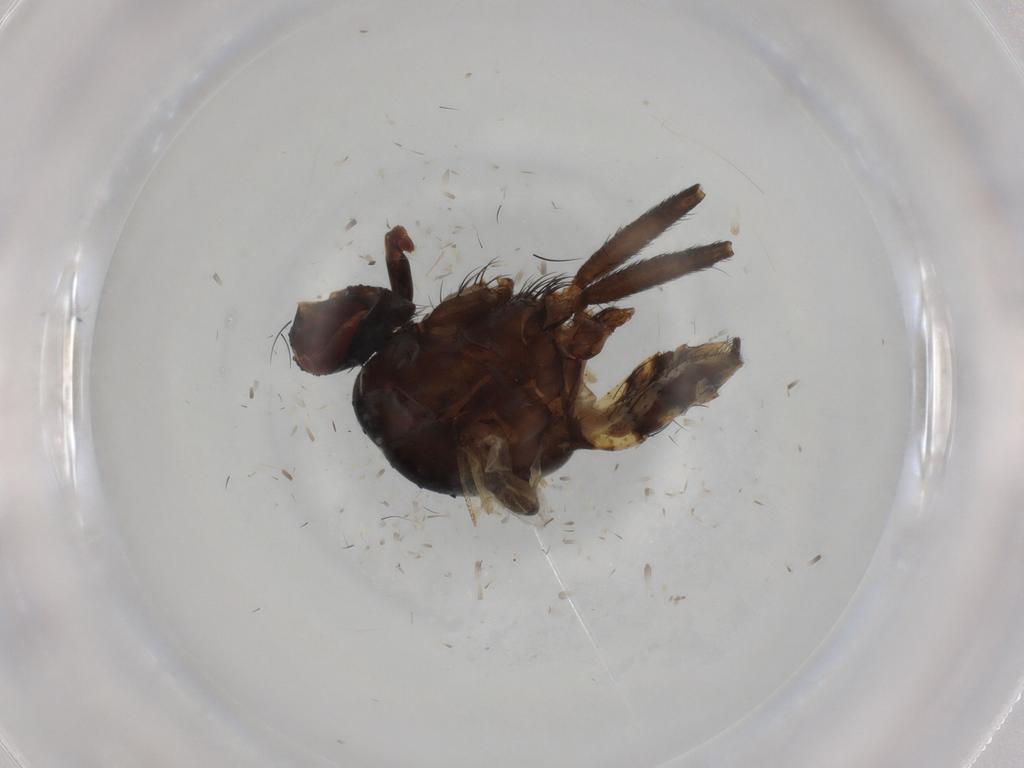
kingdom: Animalia
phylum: Arthropoda
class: Insecta
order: Diptera
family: Anthomyiidae
